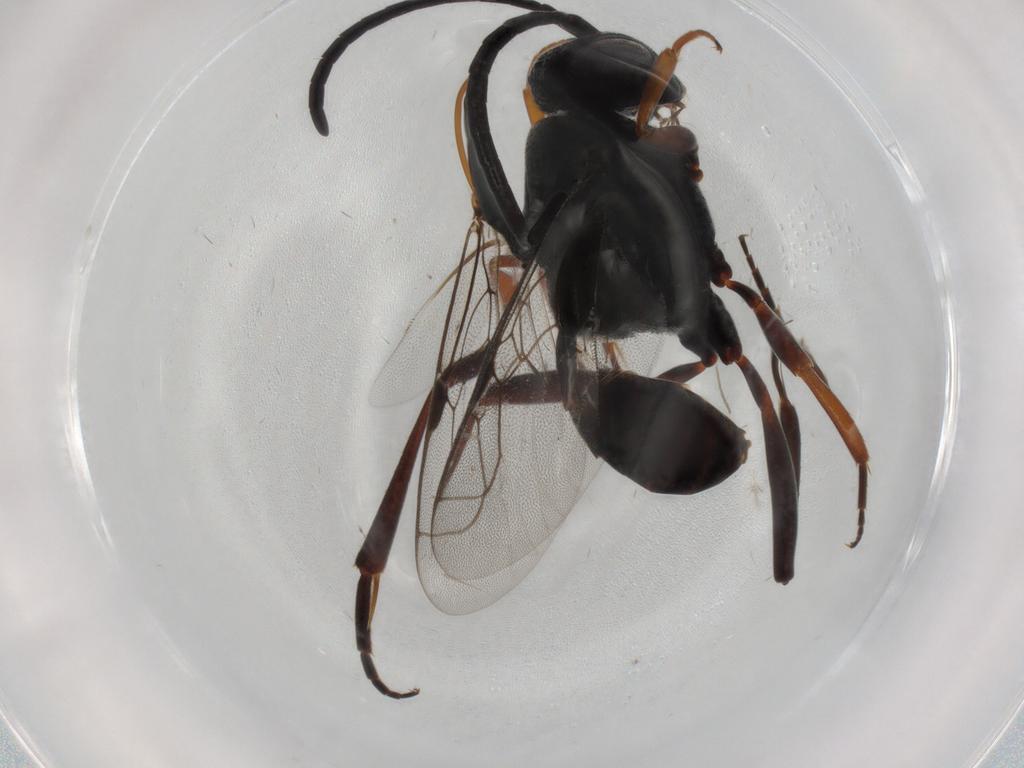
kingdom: Animalia
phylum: Arthropoda
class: Insecta
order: Hymenoptera
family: Evaniidae
